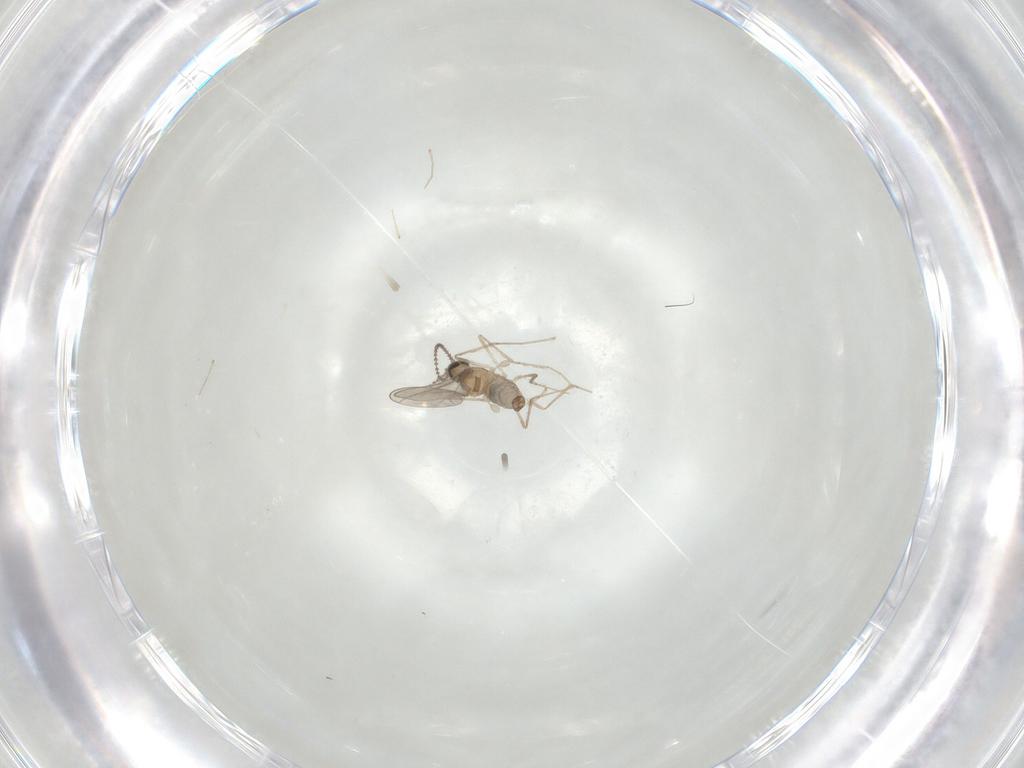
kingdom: Animalia
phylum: Arthropoda
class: Insecta
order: Diptera
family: Cecidomyiidae
